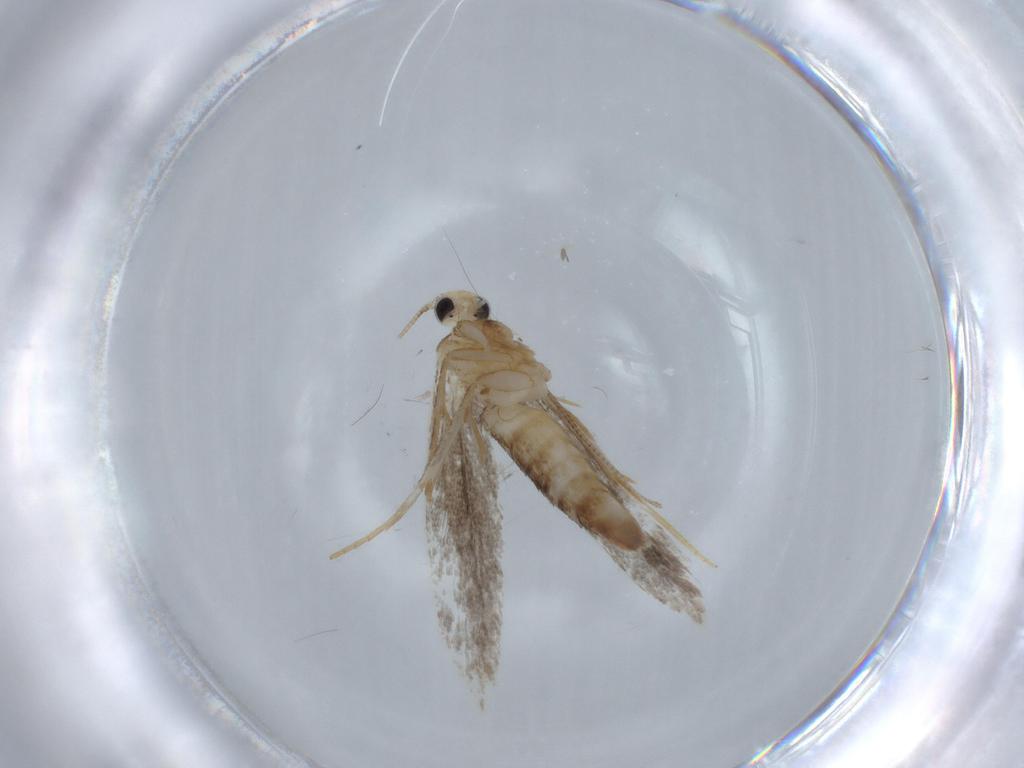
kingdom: Animalia
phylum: Arthropoda
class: Insecta
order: Lepidoptera
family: Tineidae
